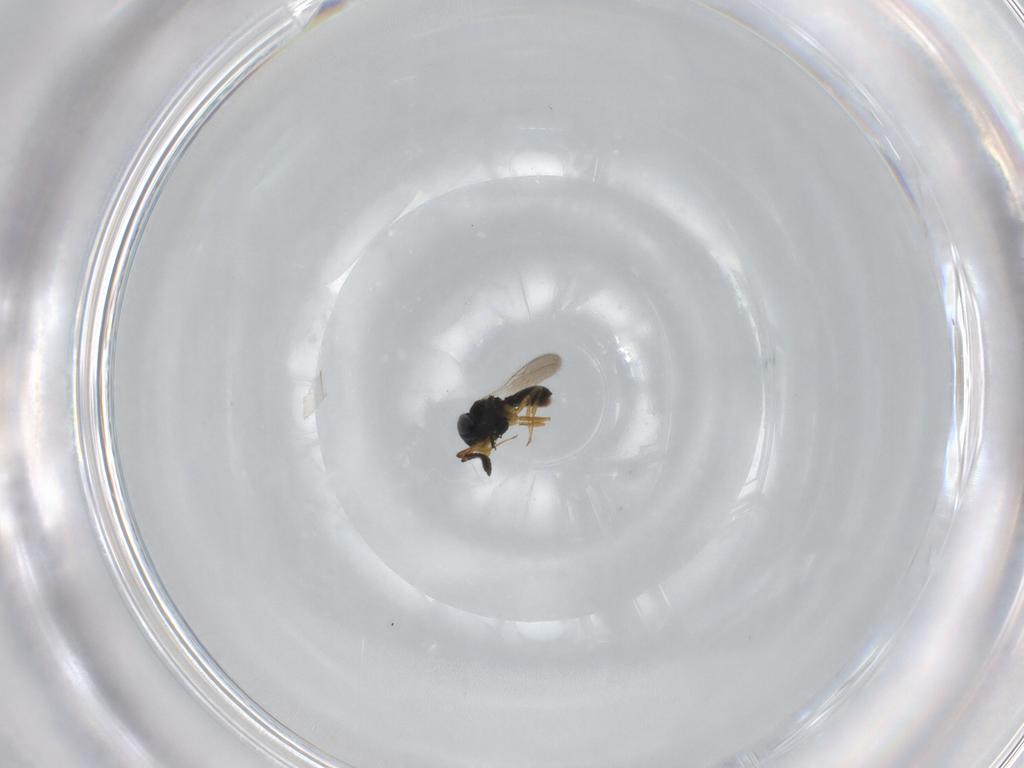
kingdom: Animalia
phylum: Arthropoda
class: Insecta
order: Hymenoptera
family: Scelionidae
